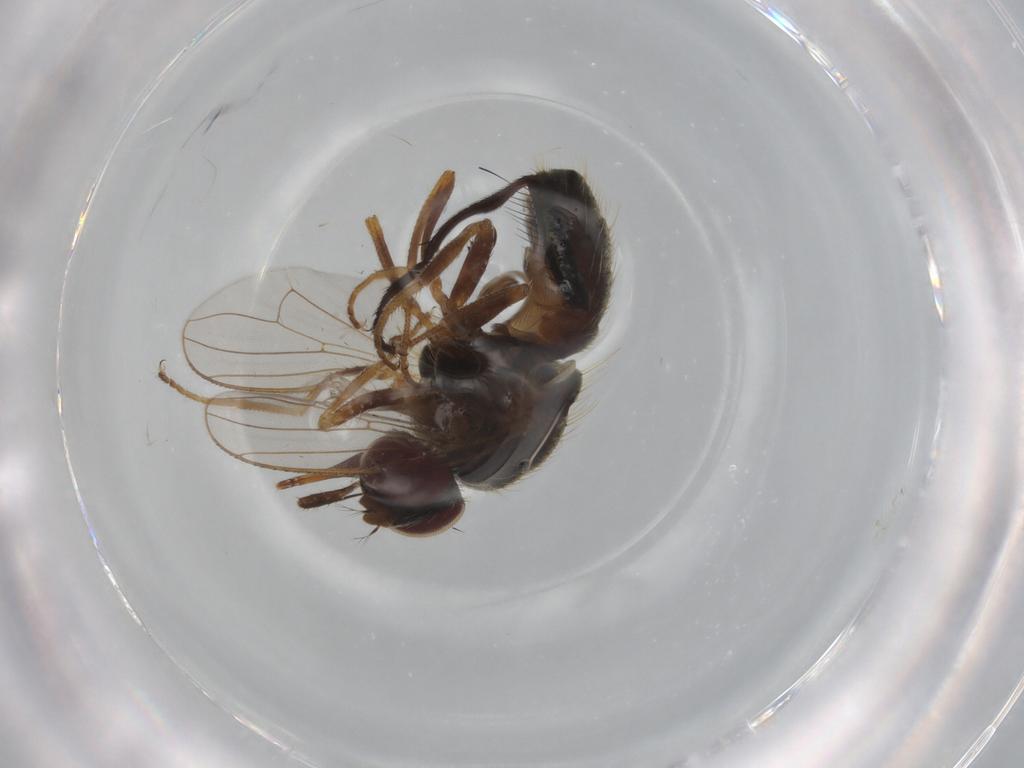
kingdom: Animalia
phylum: Arthropoda
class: Insecta
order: Diptera
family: Muscidae
